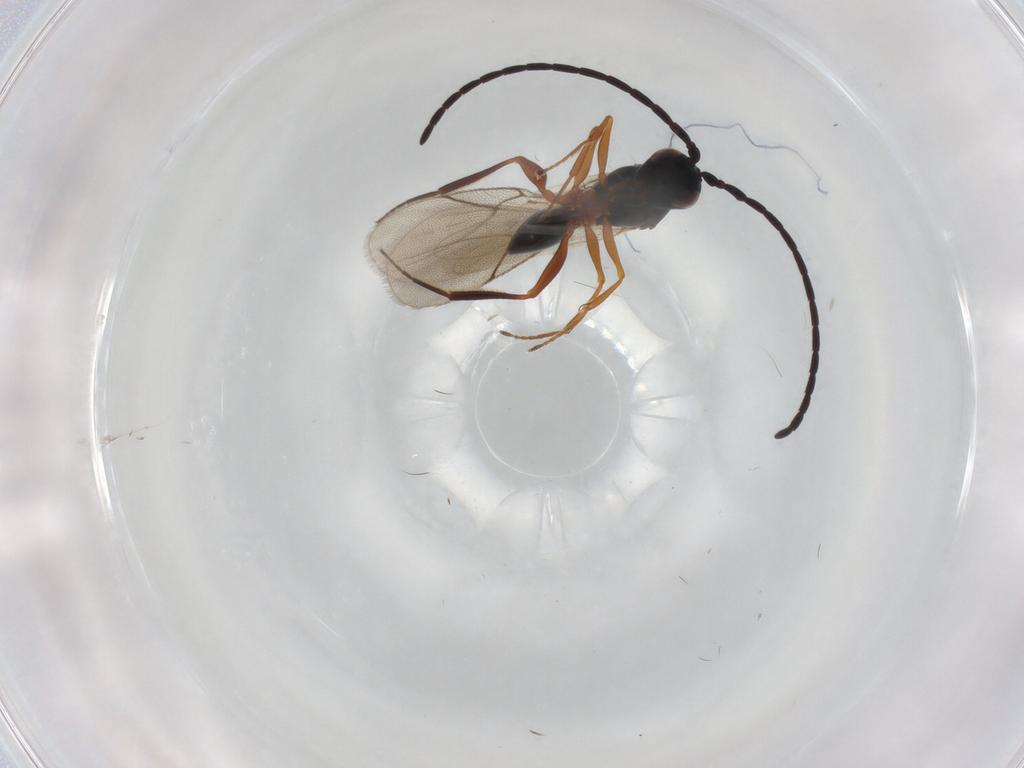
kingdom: Animalia
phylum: Arthropoda
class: Insecta
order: Hymenoptera
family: Figitidae
